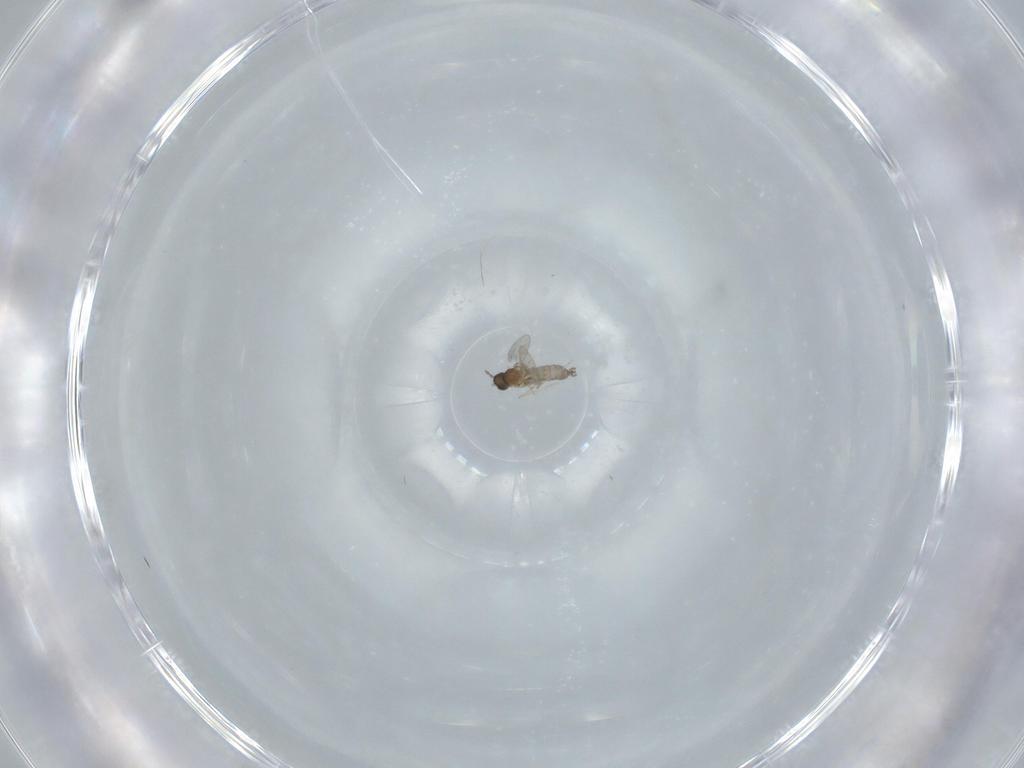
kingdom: Animalia
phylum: Arthropoda
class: Insecta
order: Diptera
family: Cecidomyiidae
